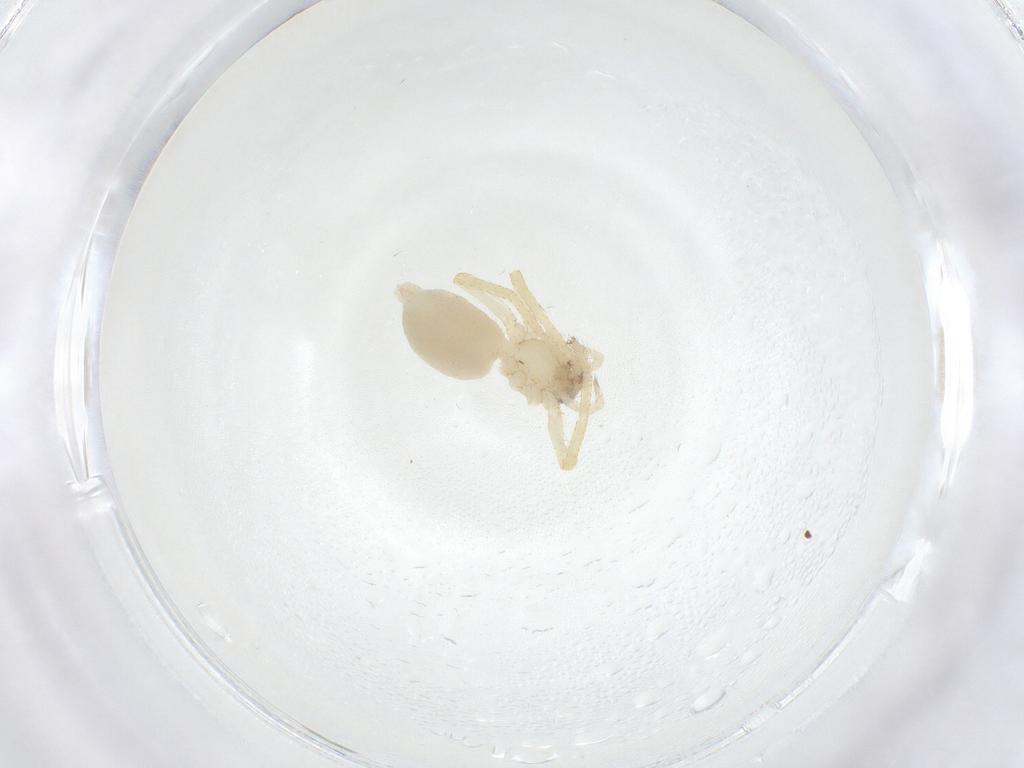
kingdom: Animalia
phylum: Arthropoda
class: Arachnida
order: Araneae
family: Dysderidae
